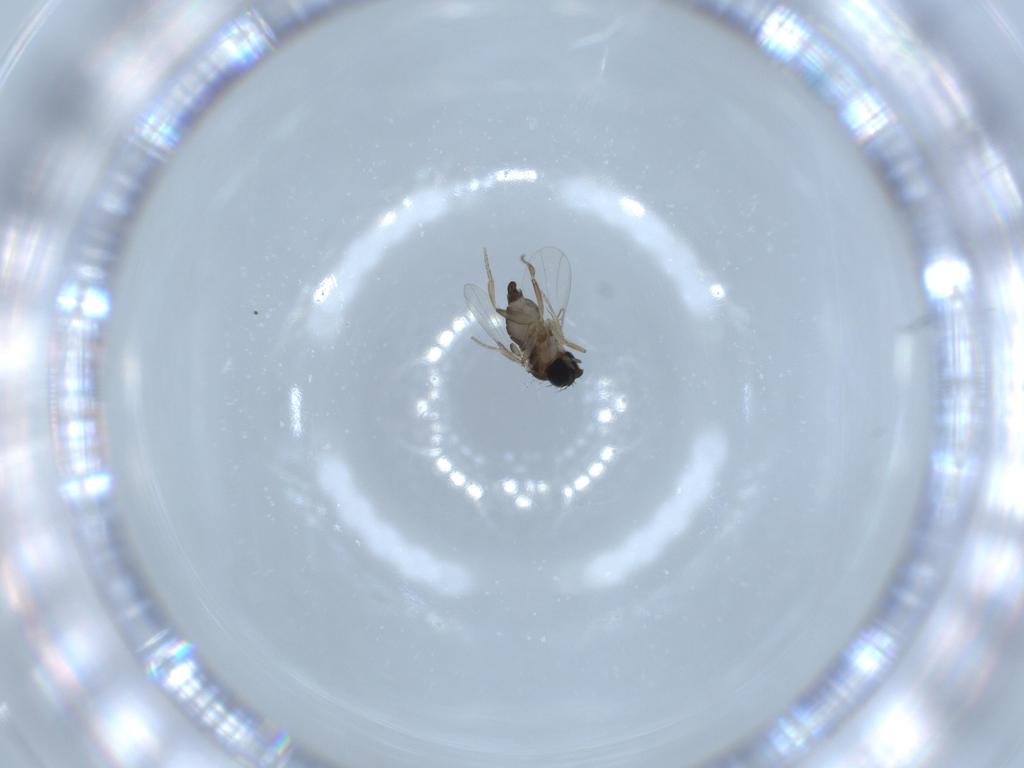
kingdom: Animalia
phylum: Arthropoda
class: Insecta
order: Diptera
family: Phoridae
